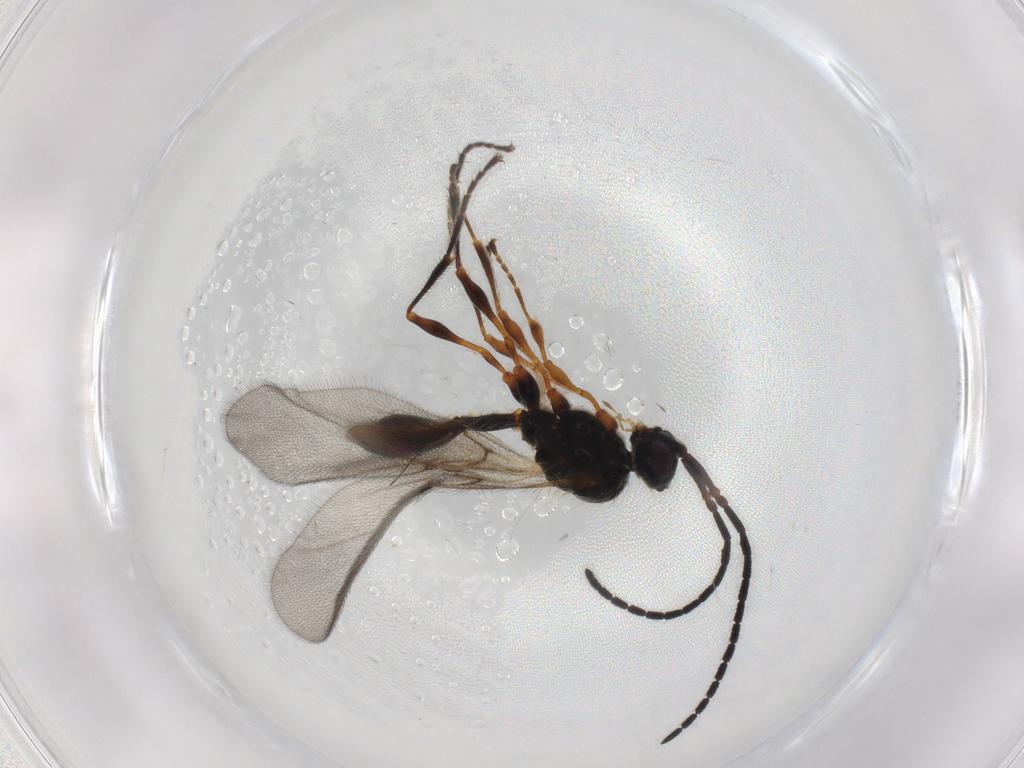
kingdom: Animalia
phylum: Arthropoda
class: Insecta
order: Hymenoptera
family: Diapriidae
